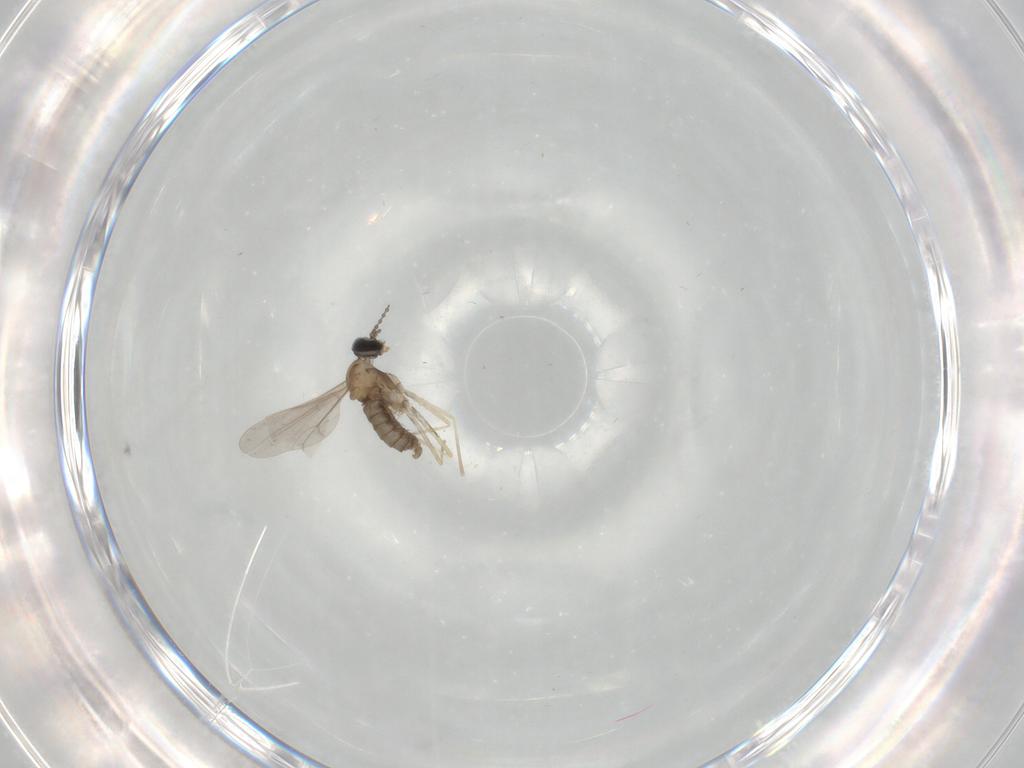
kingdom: Animalia
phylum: Arthropoda
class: Insecta
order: Diptera
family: Cecidomyiidae
